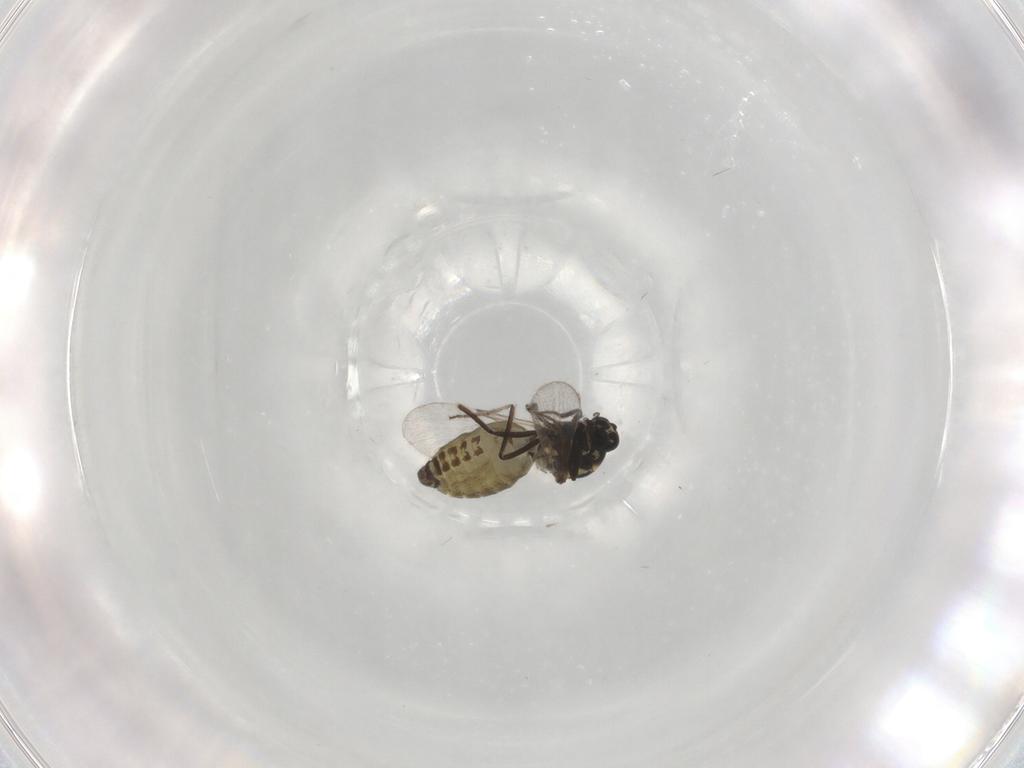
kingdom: Animalia
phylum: Arthropoda
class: Insecta
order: Diptera
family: Ceratopogonidae
